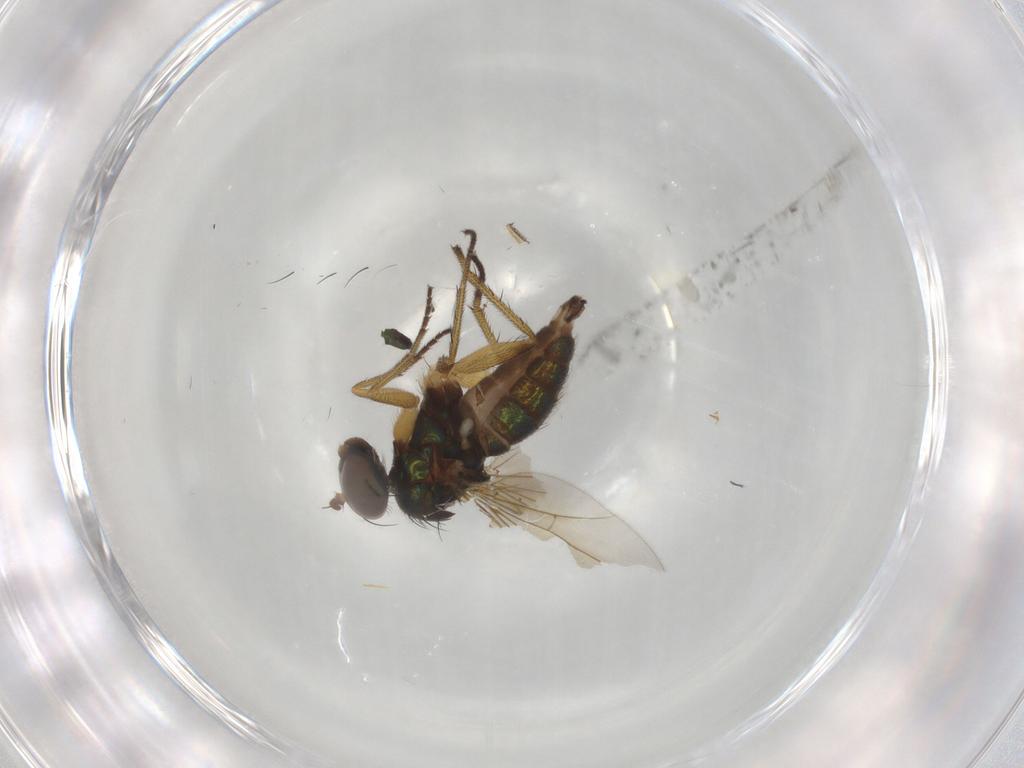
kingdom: Animalia
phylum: Arthropoda
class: Insecta
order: Diptera
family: Dolichopodidae
